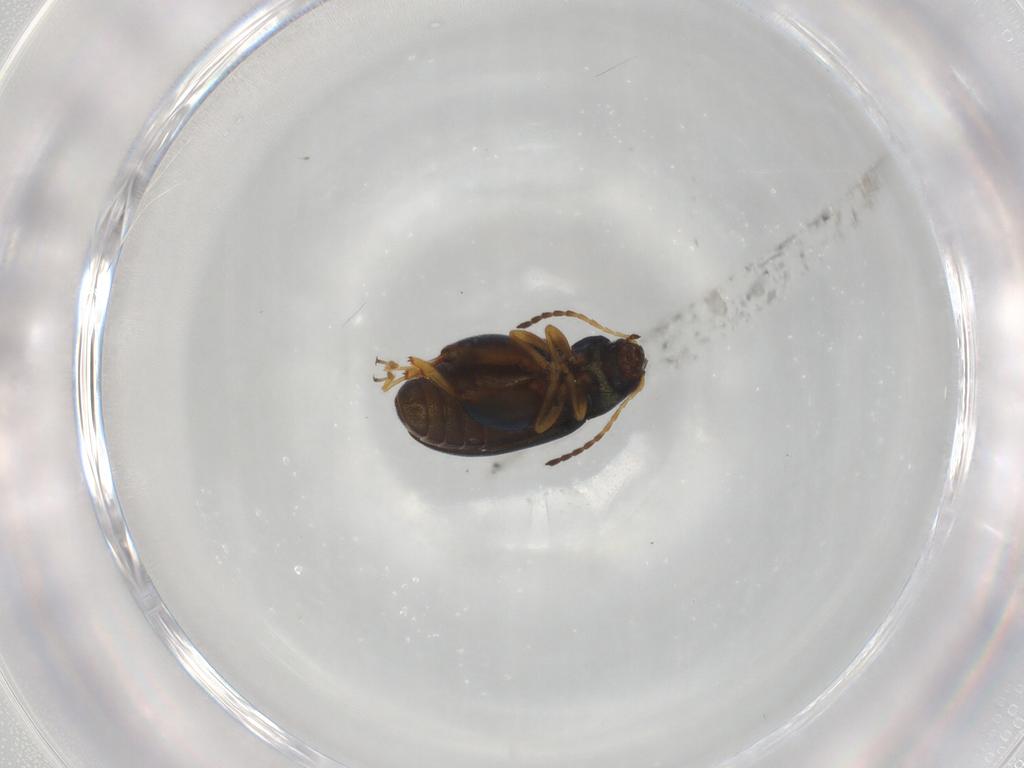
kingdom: Animalia
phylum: Arthropoda
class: Insecta
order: Coleoptera
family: Chrysomelidae
